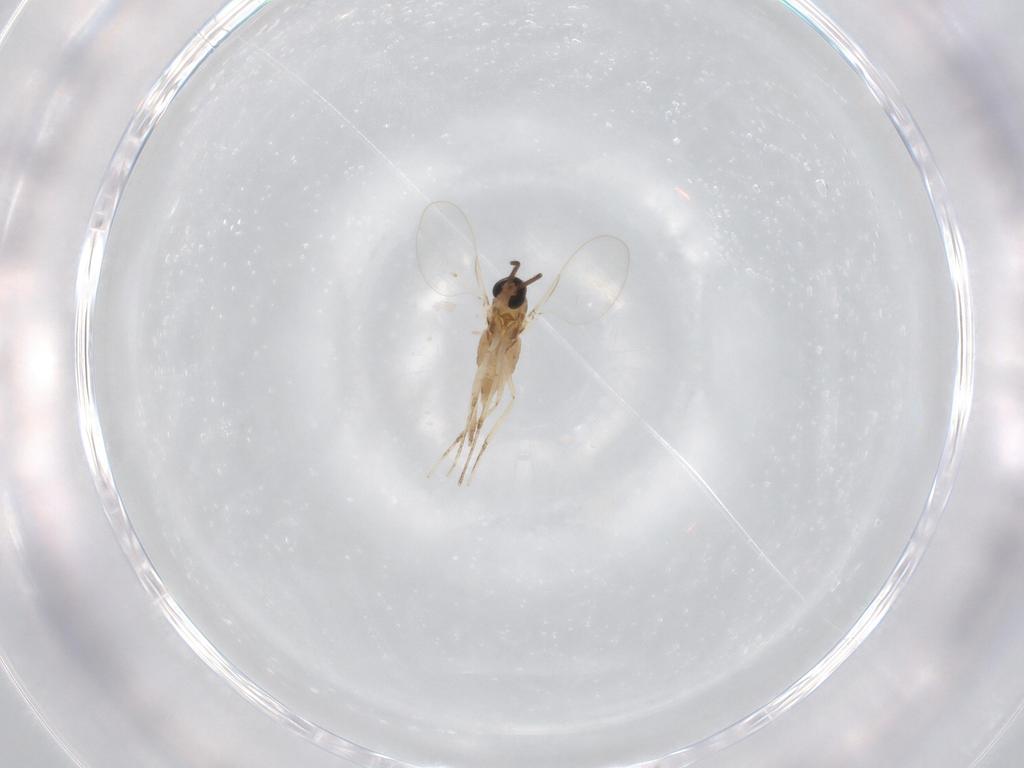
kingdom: Animalia
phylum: Arthropoda
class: Insecta
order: Diptera
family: Cecidomyiidae
